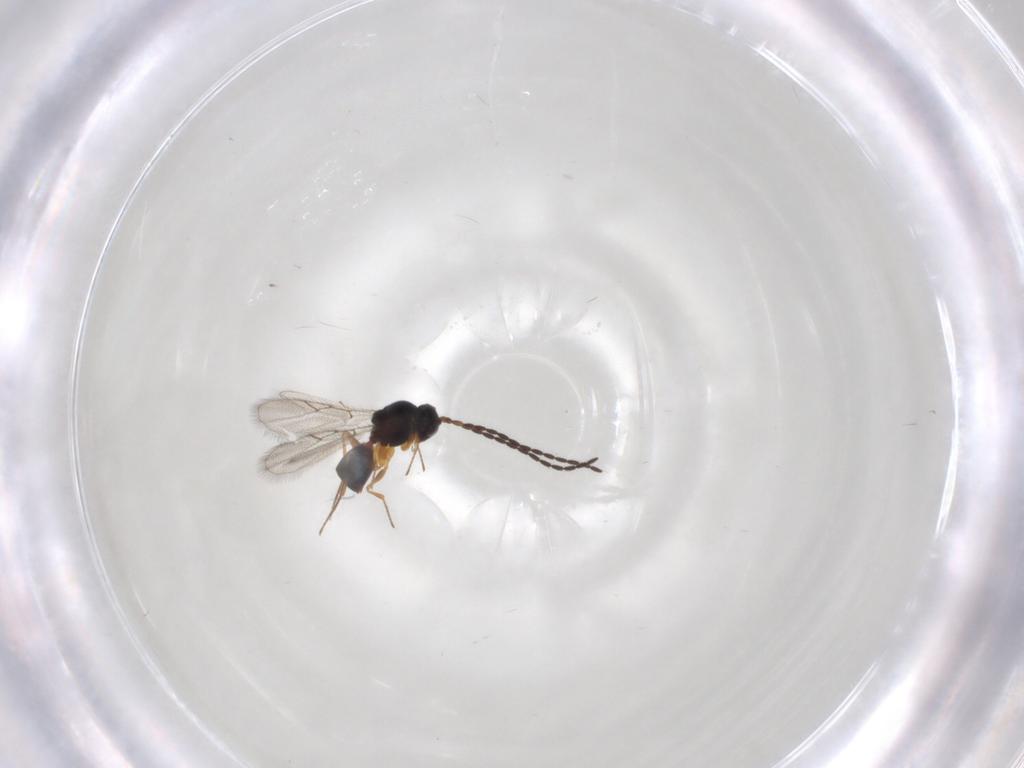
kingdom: Animalia
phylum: Arthropoda
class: Insecta
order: Hymenoptera
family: Figitidae
